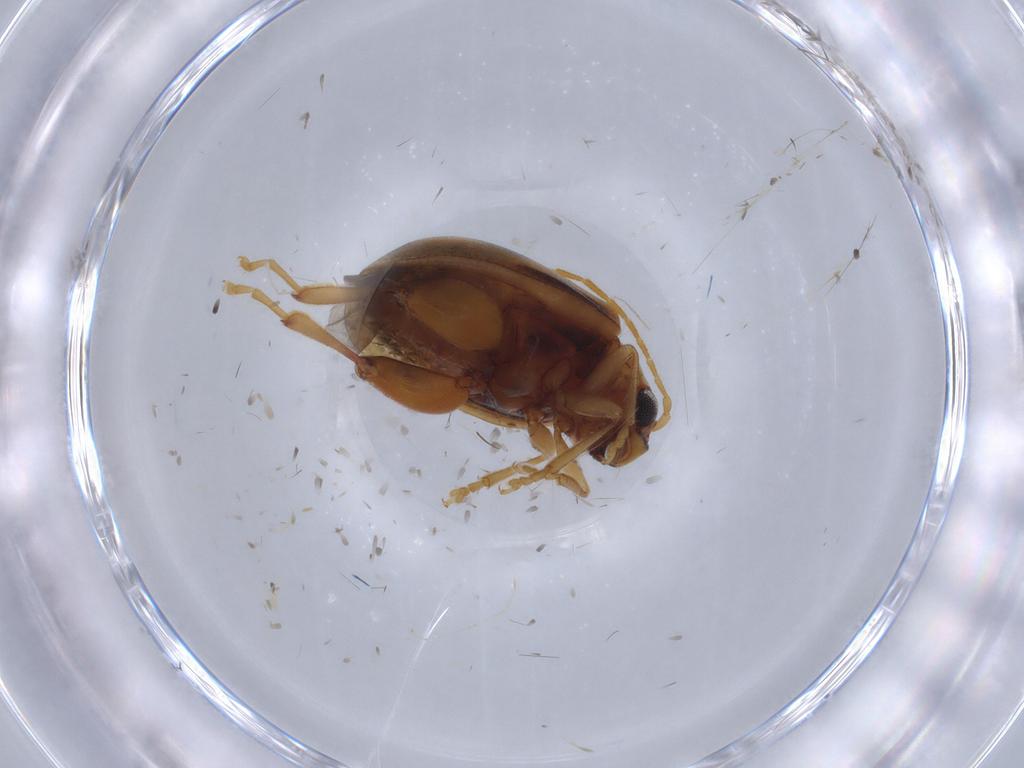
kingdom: Animalia
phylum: Arthropoda
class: Insecta
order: Coleoptera
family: Chrysomelidae
